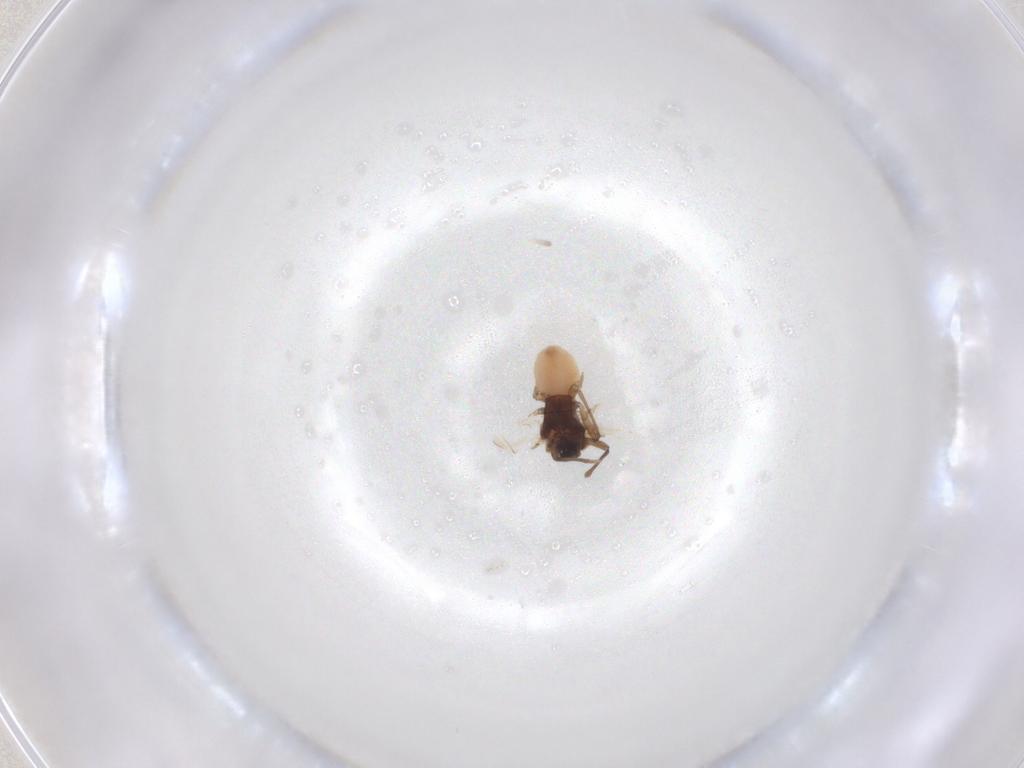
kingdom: Animalia
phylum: Arthropoda
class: Insecta
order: Hemiptera
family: Aphididae
